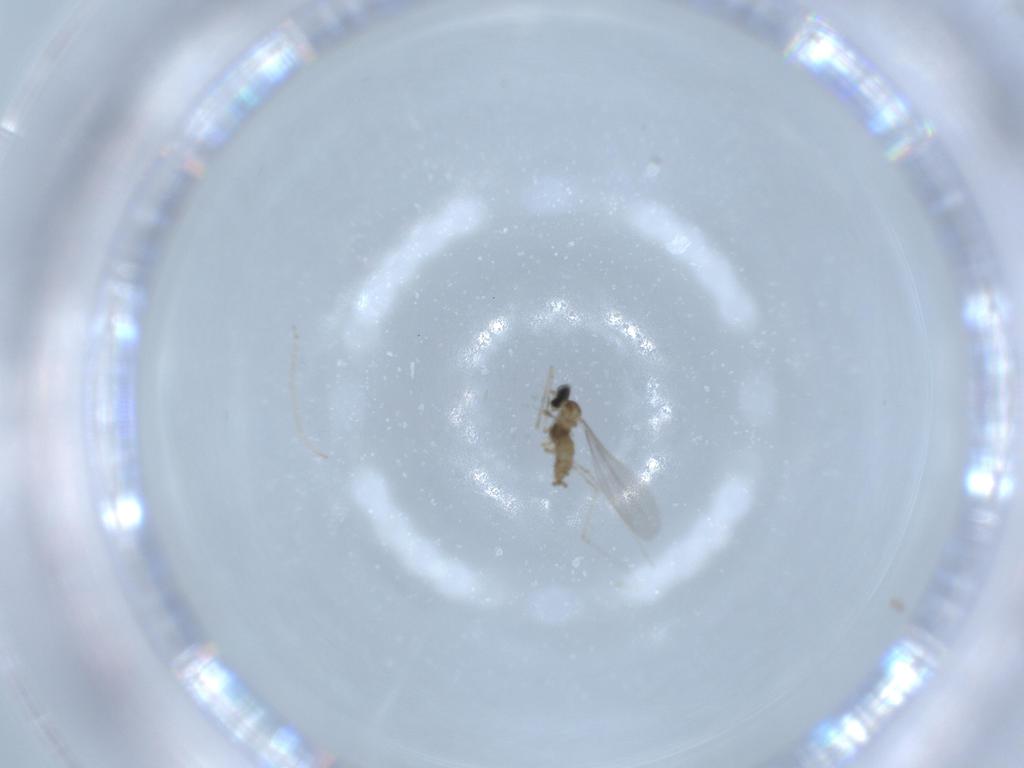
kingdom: Animalia
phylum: Arthropoda
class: Insecta
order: Diptera
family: Cecidomyiidae
